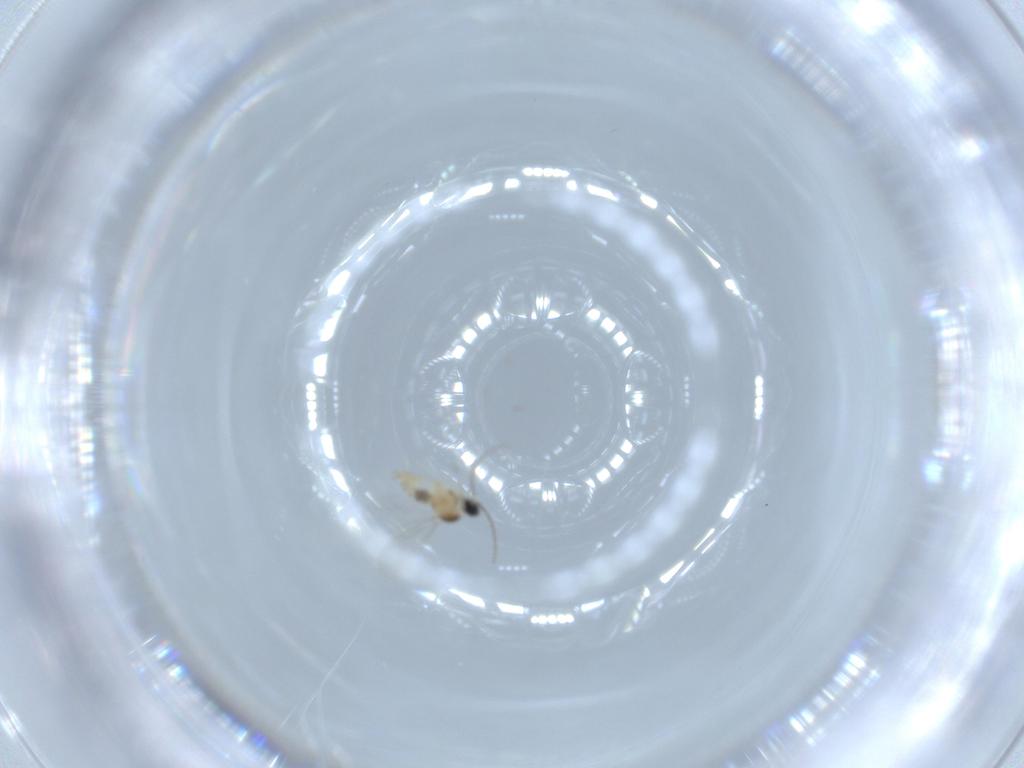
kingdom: Animalia
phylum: Arthropoda
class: Insecta
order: Diptera
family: Cecidomyiidae
